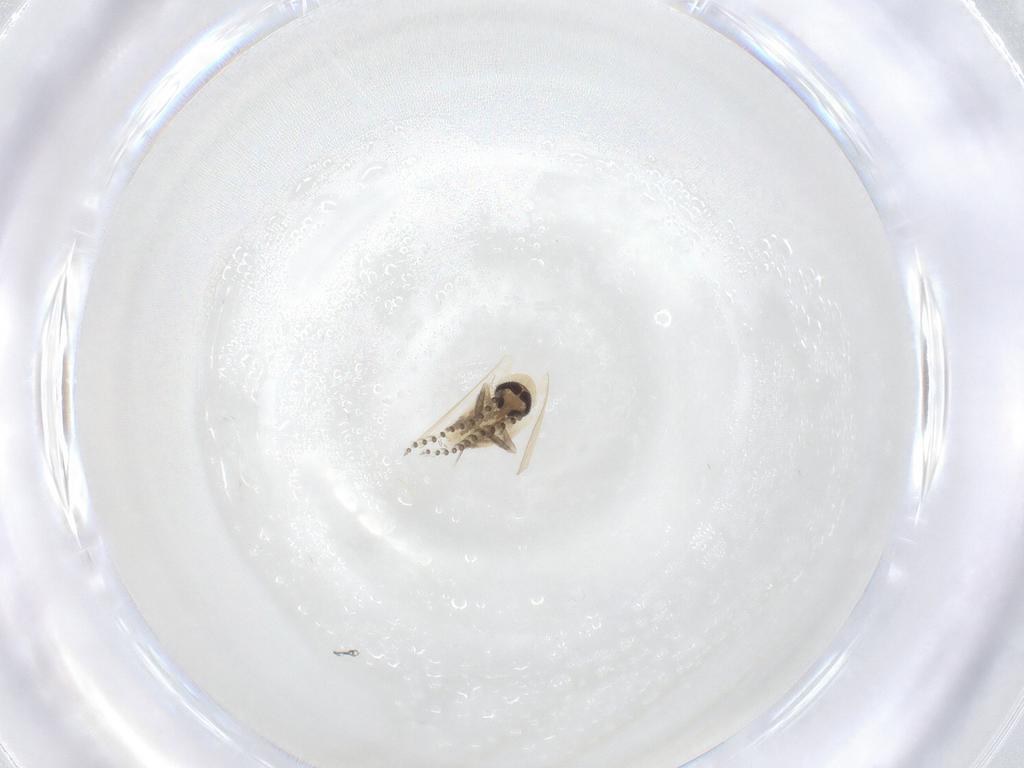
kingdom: Animalia
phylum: Arthropoda
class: Insecta
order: Diptera
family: Psychodidae
